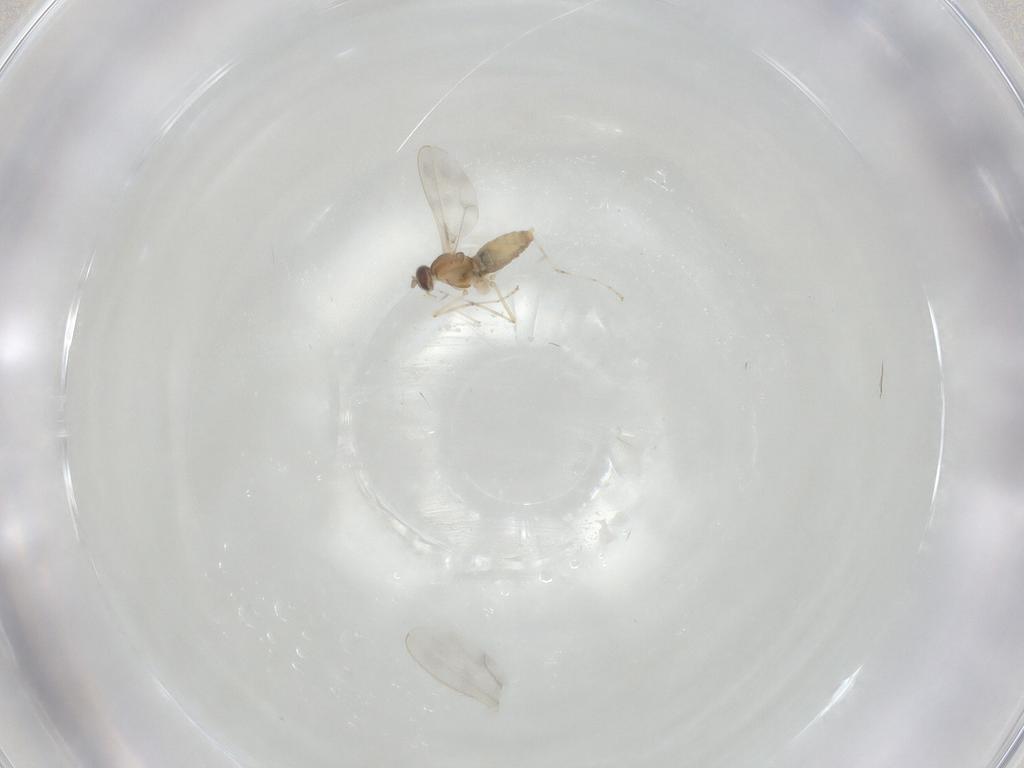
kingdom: Animalia
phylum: Arthropoda
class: Insecta
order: Diptera
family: Cecidomyiidae
